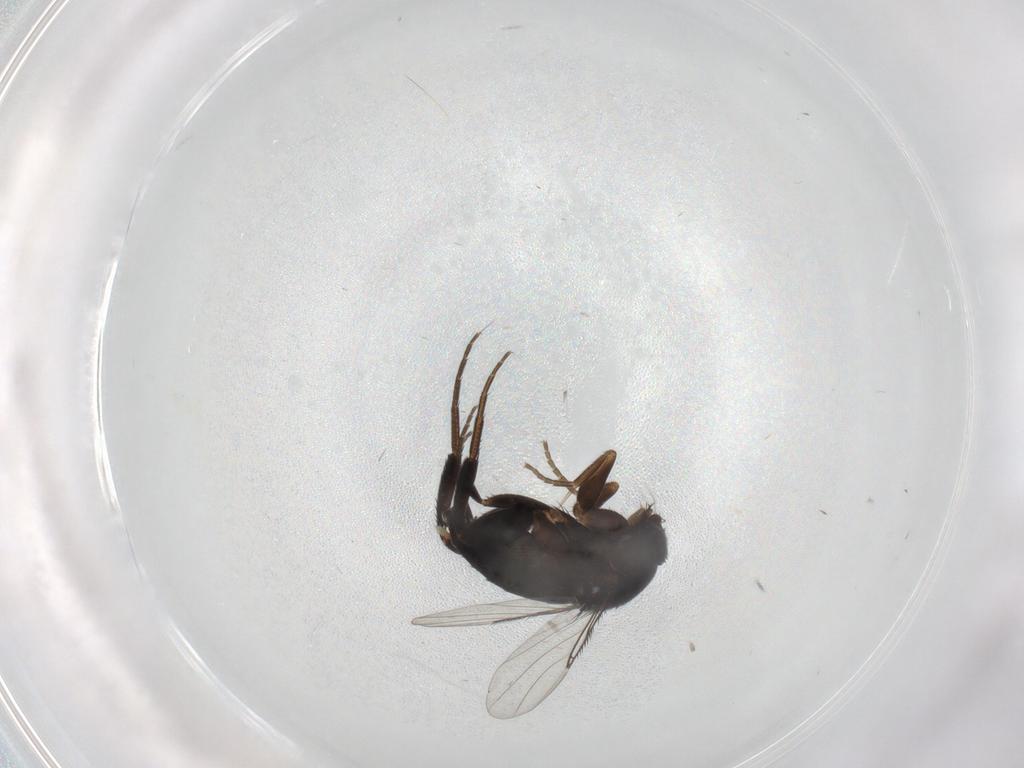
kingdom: Animalia
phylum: Arthropoda
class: Insecta
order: Diptera
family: Phoridae
